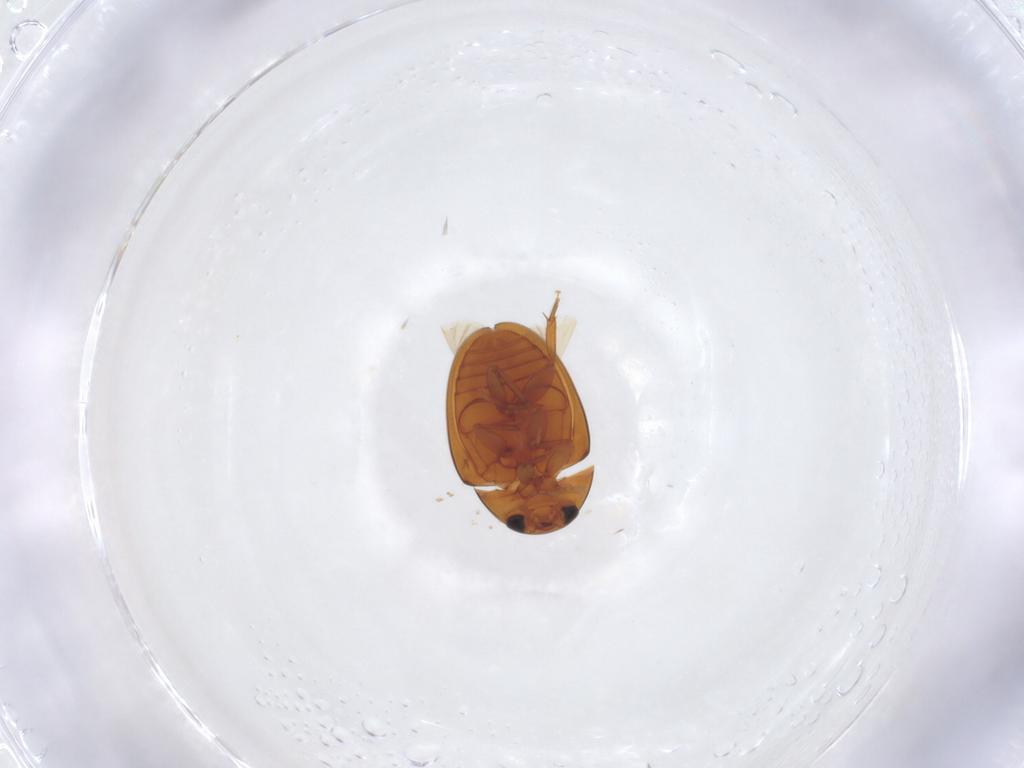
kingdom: Animalia
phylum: Arthropoda
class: Insecta
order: Coleoptera
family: Phalacridae
